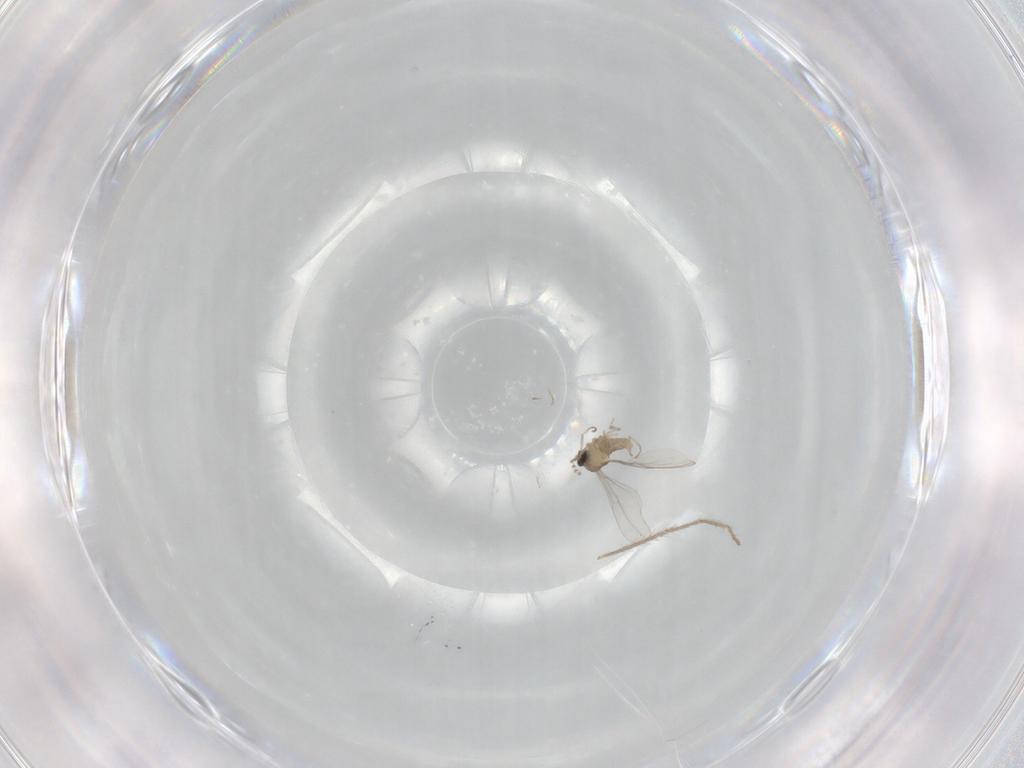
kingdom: Animalia
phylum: Arthropoda
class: Insecta
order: Diptera
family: Cecidomyiidae
